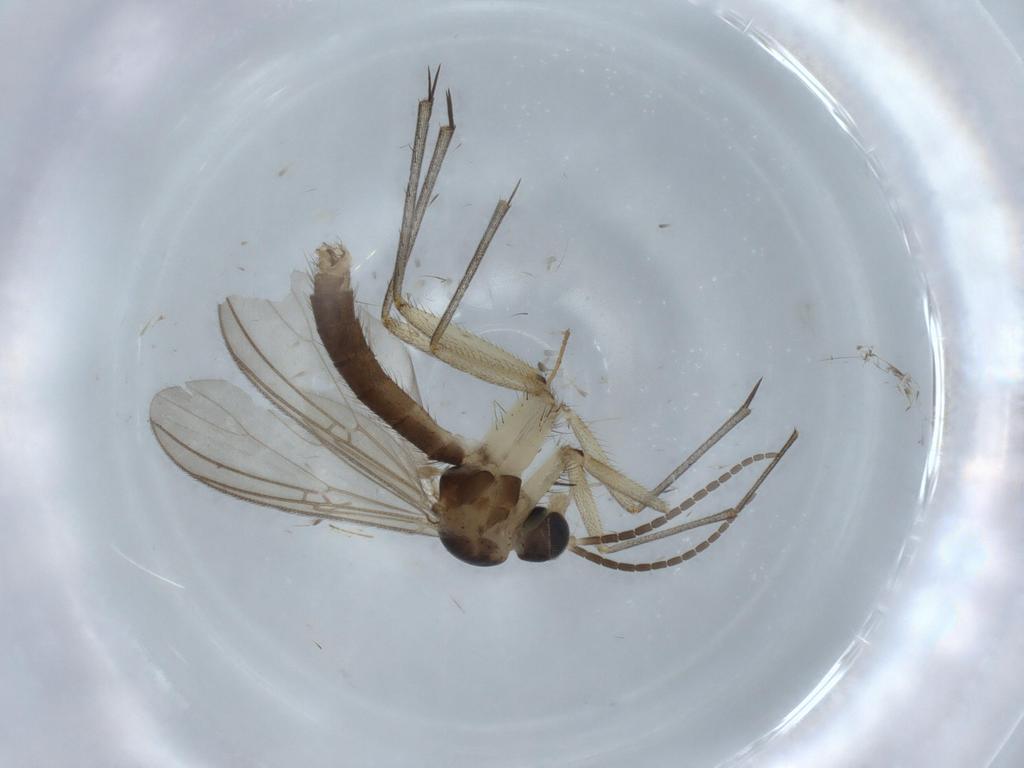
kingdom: Animalia
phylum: Arthropoda
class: Insecta
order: Diptera
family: Mycetophilidae
